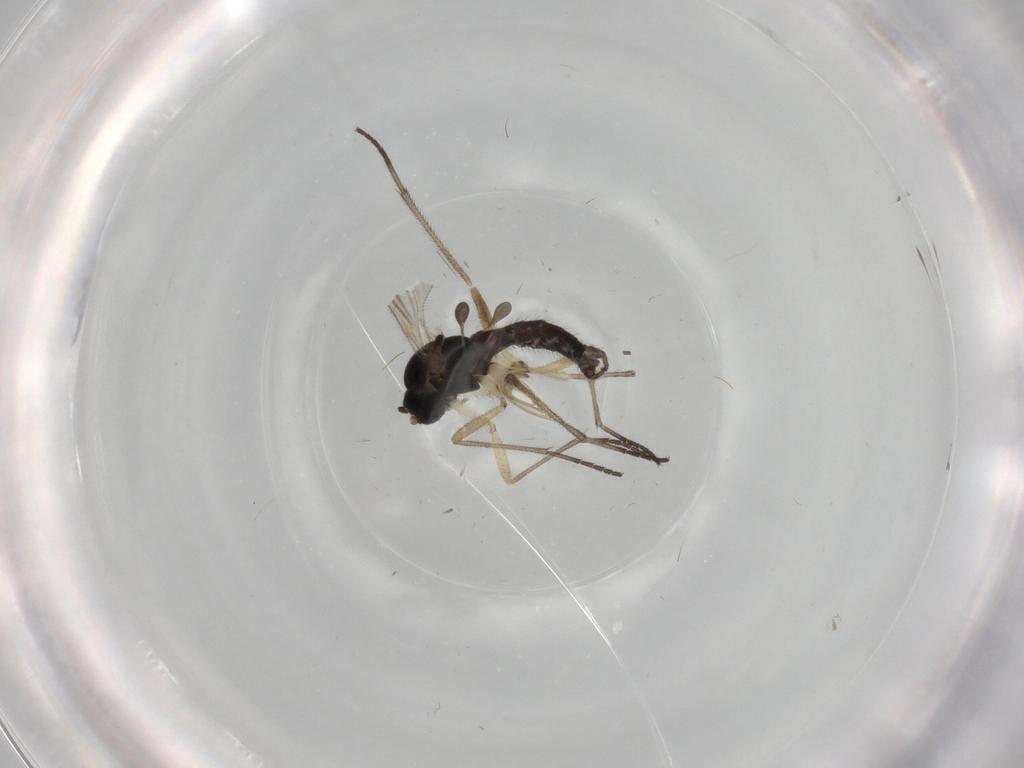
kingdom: Animalia
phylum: Arthropoda
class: Insecta
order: Diptera
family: Sciaridae
